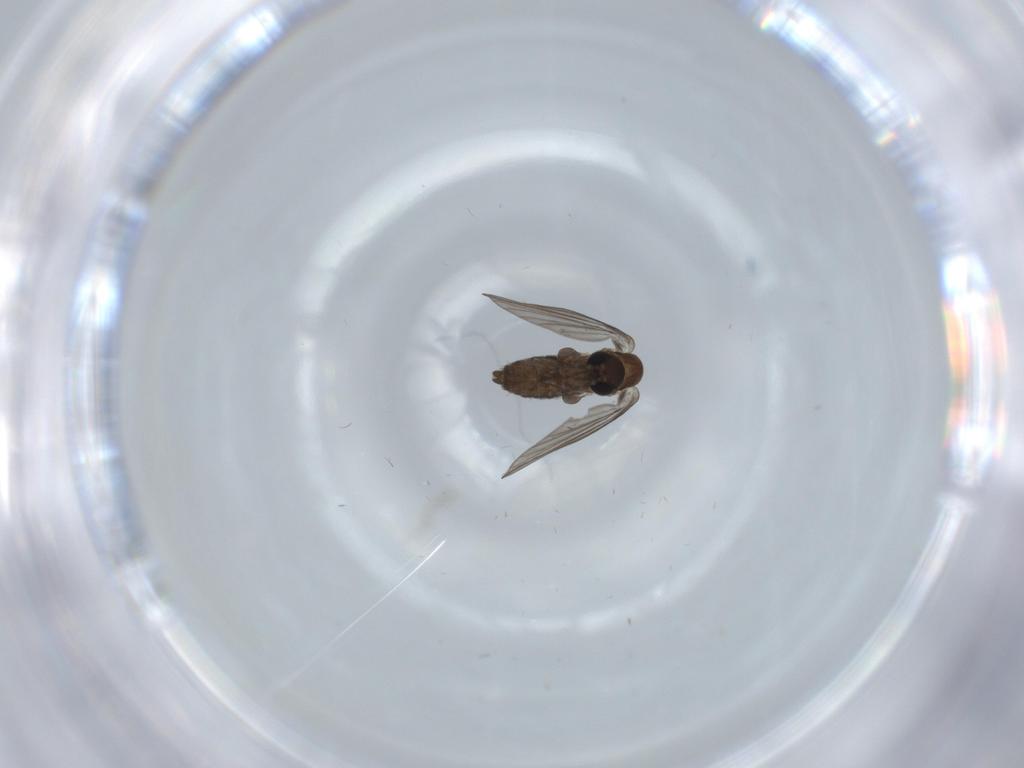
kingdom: Animalia
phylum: Arthropoda
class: Insecta
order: Diptera
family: Psychodidae
